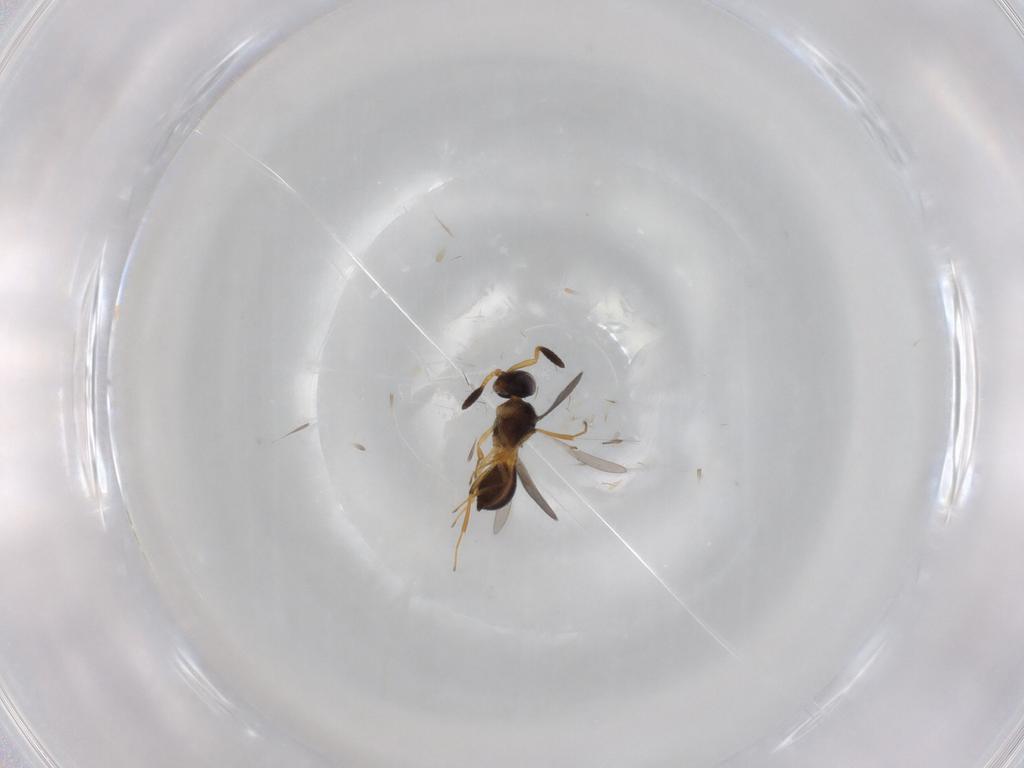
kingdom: Animalia
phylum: Arthropoda
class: Insecta
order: Hymenoptera
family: Scelionidae
